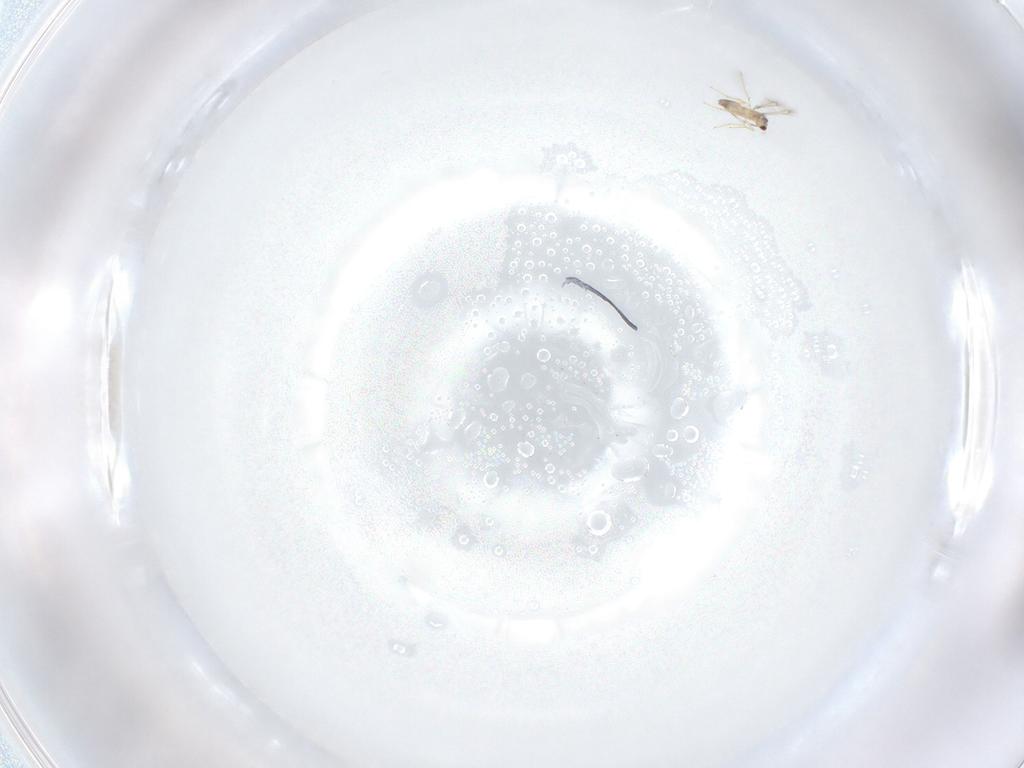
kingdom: Animalia
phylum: Arthropoda
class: Insecta
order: Hymenoptera
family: Mymaridae
